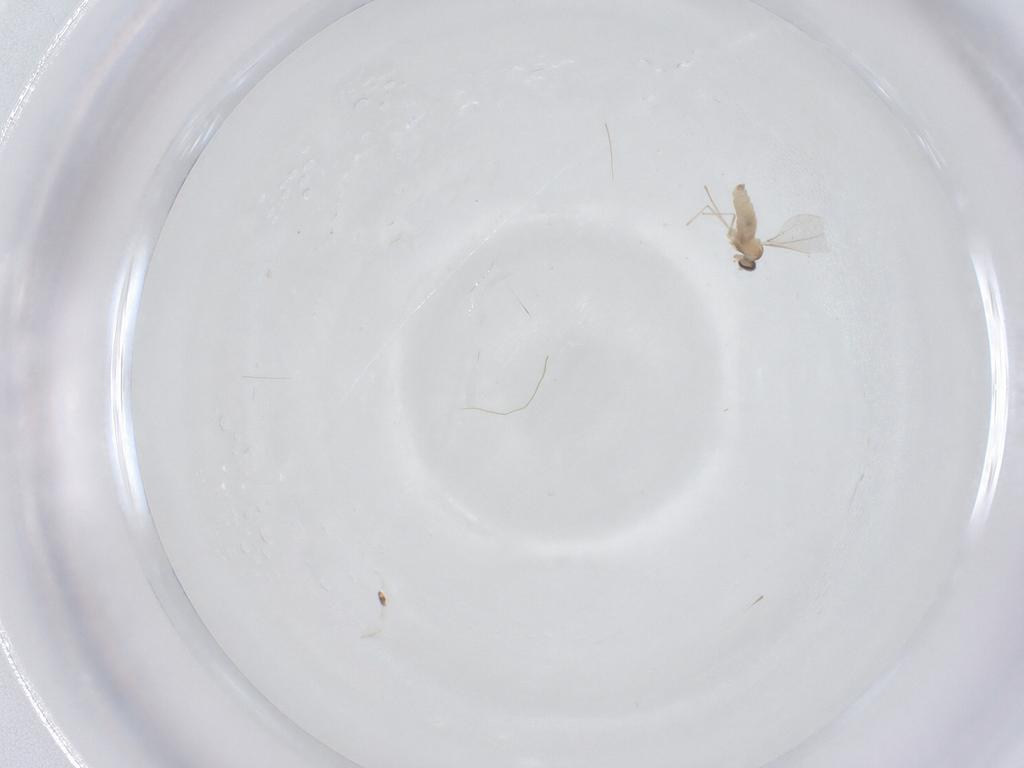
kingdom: Animalia
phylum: Arthropoda
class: Insecta
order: Diptera
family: Cecidomyiidae
